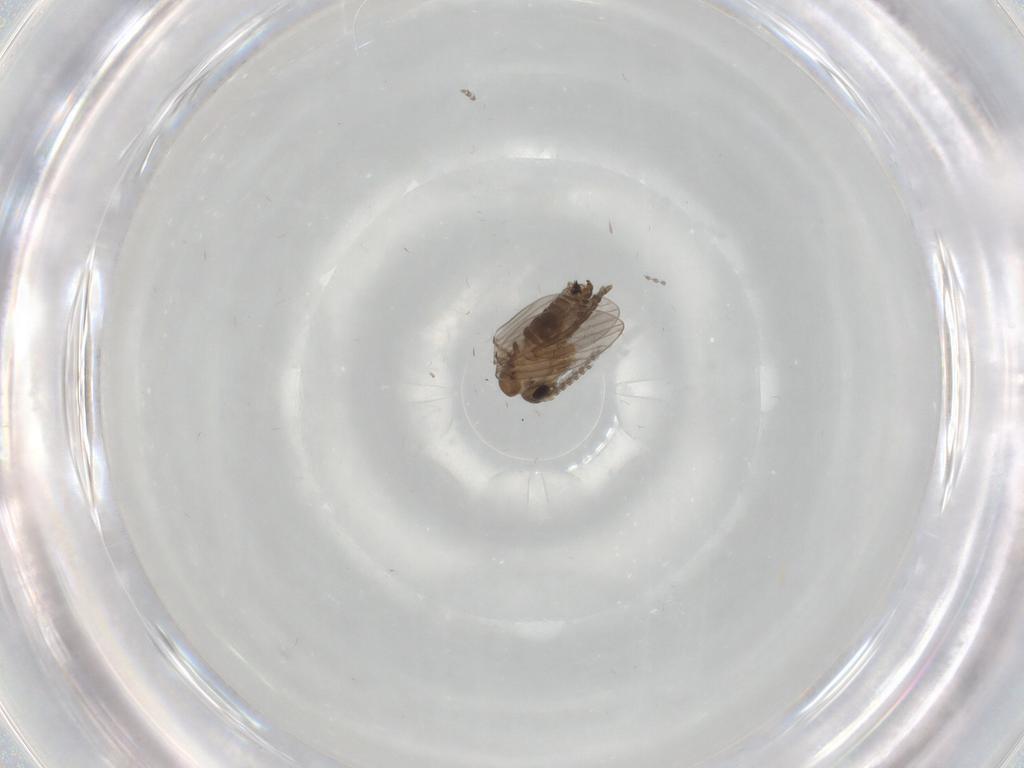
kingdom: Animalia
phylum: Arthropoda
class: Insecta
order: Diptera
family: Psychodidae
